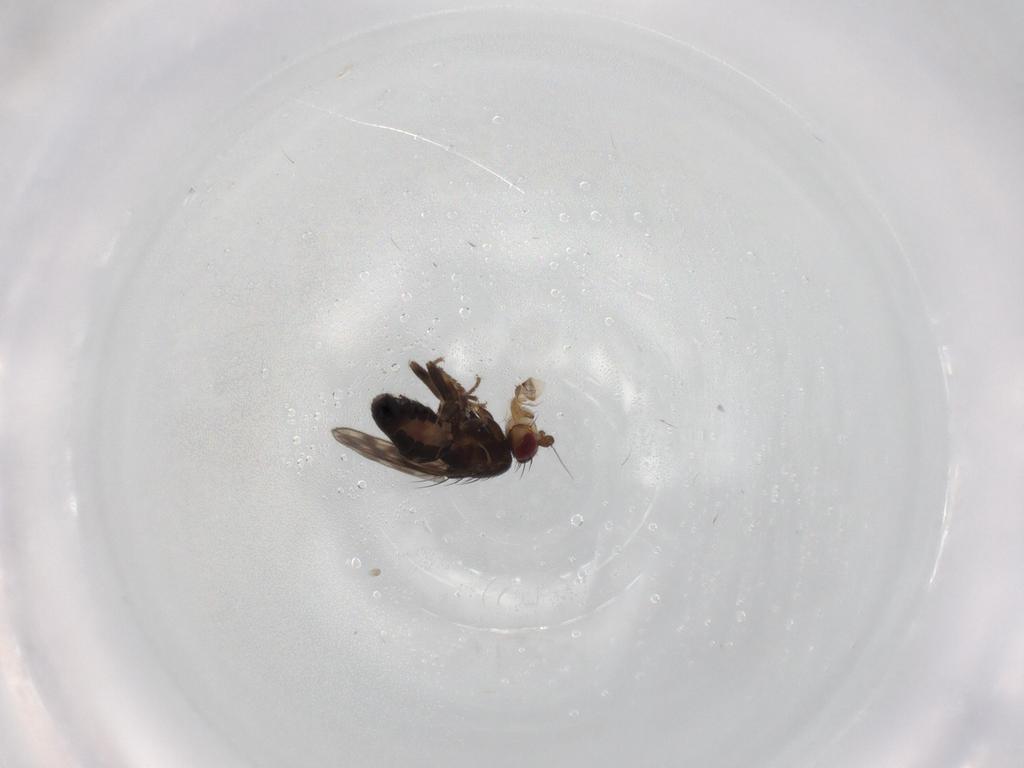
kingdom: Animalia
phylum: Arthropoda
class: Insecta
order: Diptera
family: Sphaeroceridae
